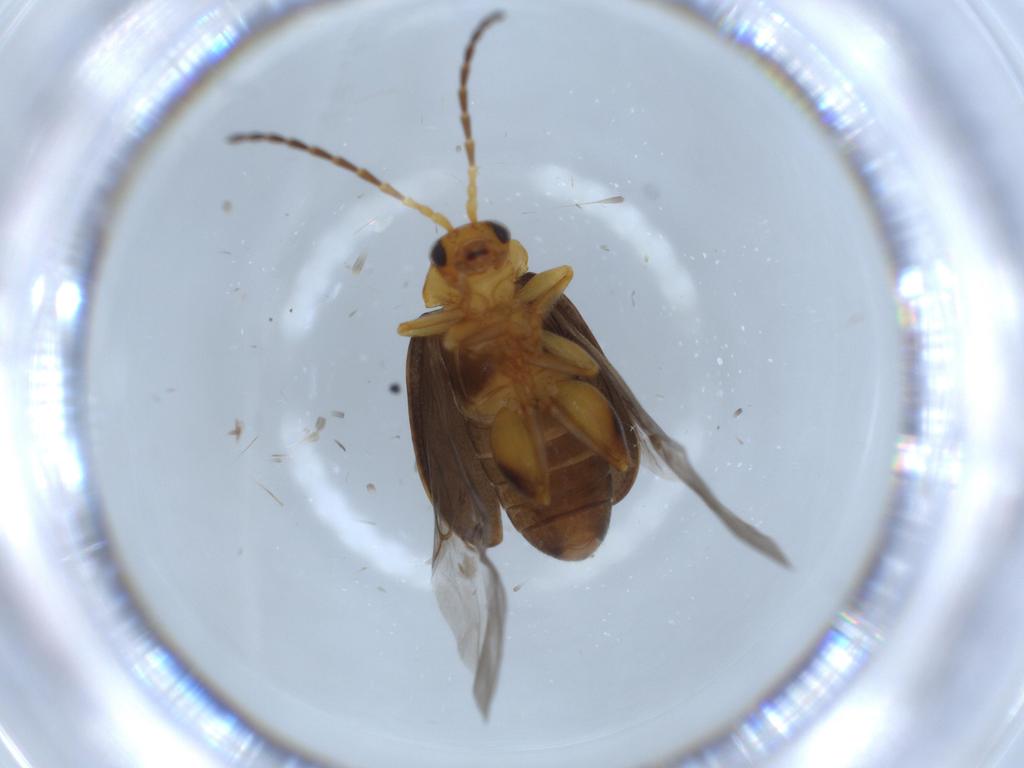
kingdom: Animalia
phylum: Arthropoda
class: Insecta
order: Coleoptera
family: Chrysomelidae
